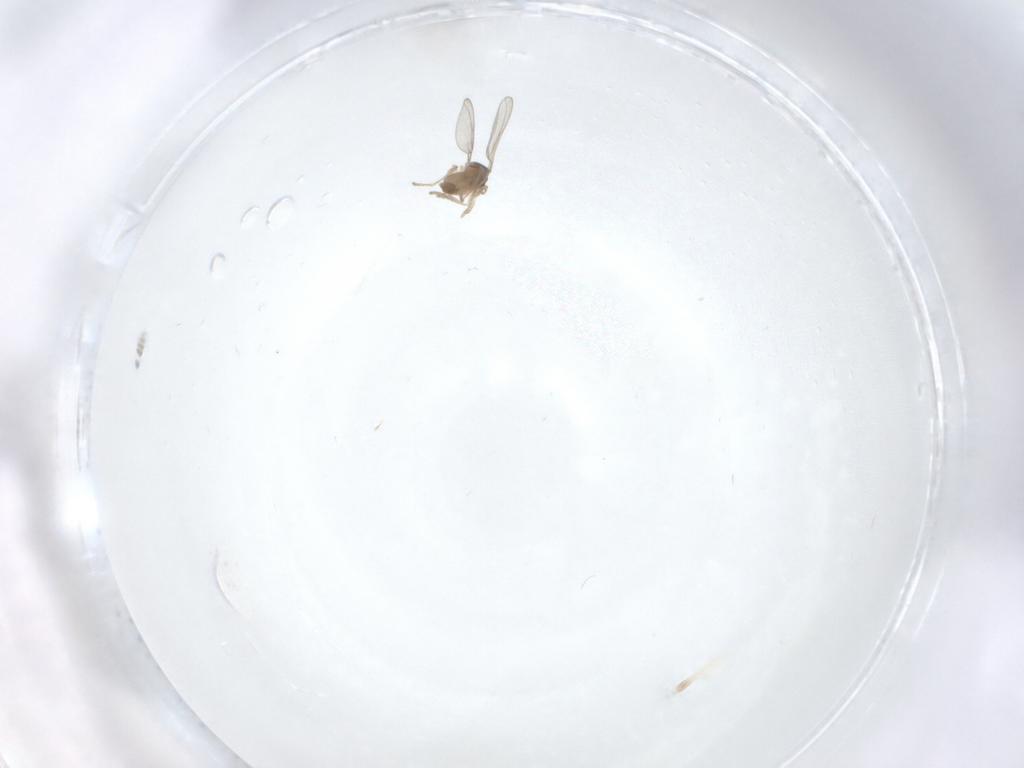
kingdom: Animalia
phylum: Arthropoda
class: Insecta
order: Diptera
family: Cecidomyiidae
